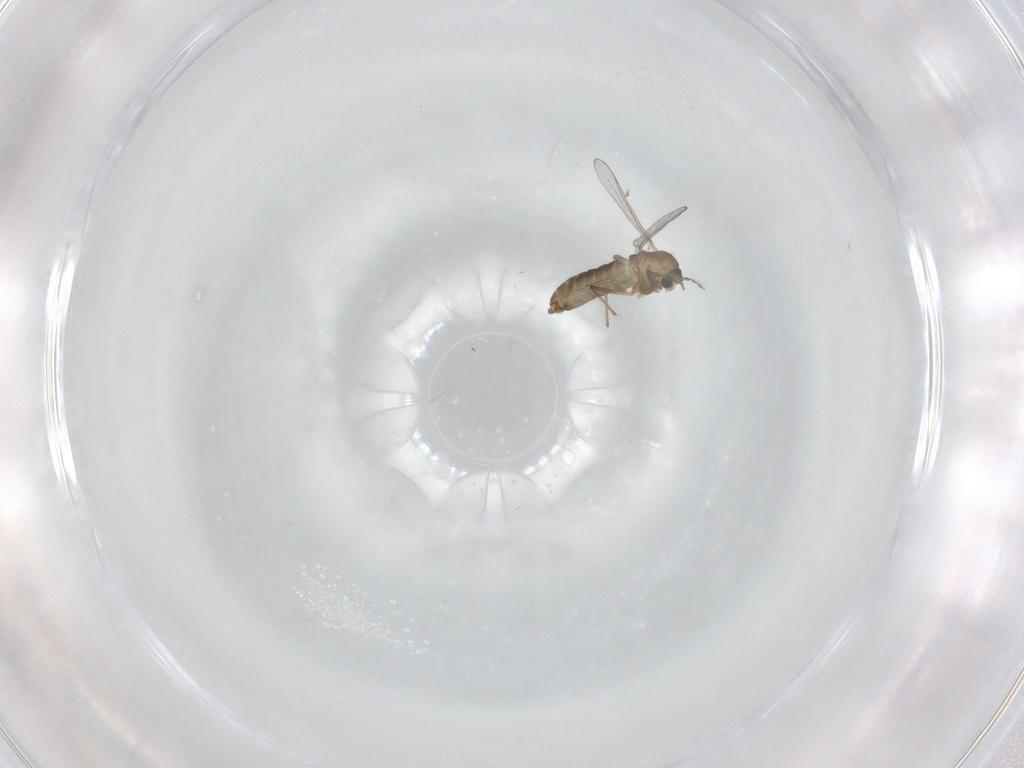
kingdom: Animalia
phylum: Arthropoda
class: Insecta
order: Diptera
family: Chironomidae
